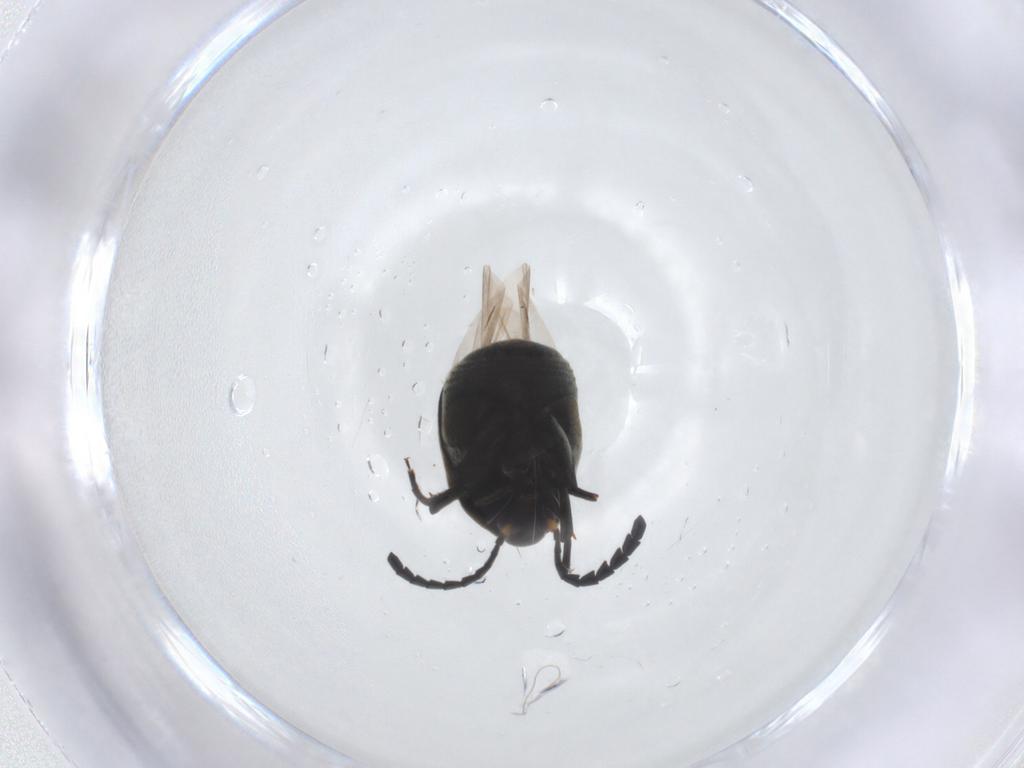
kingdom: Animalia
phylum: Arthropoda
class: Insecta
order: Coleoptera
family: Chrysomelidae
